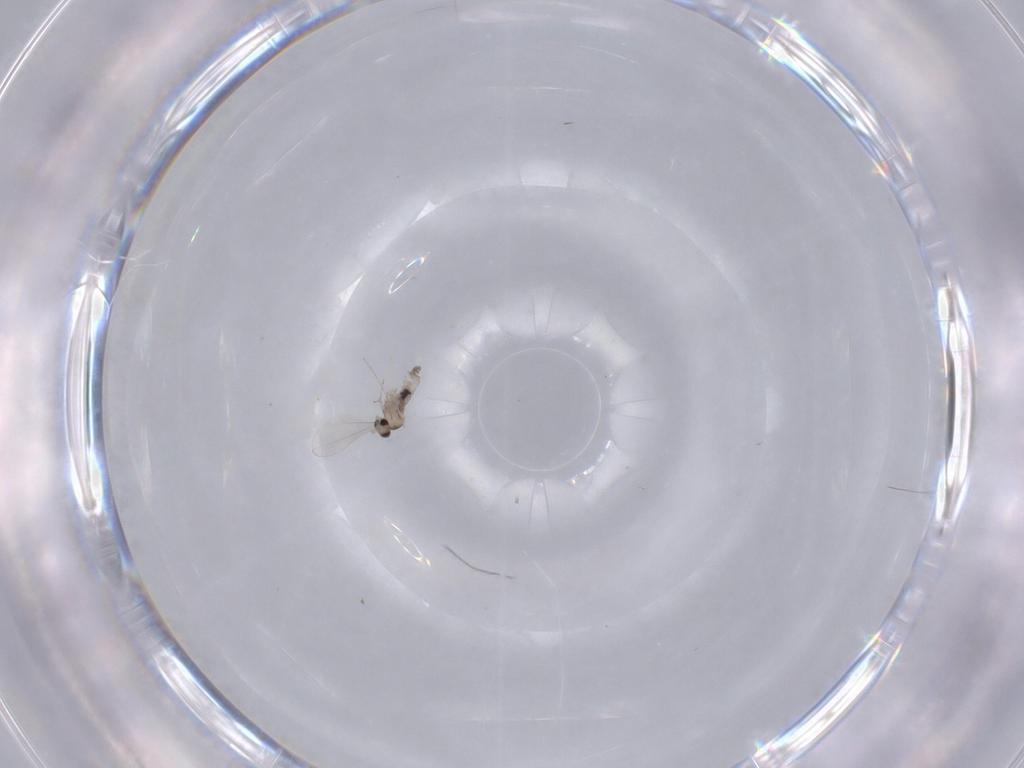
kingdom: Animalia
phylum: Arthropoda
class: Insecta
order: Diptera
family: Cecidomyiidae
